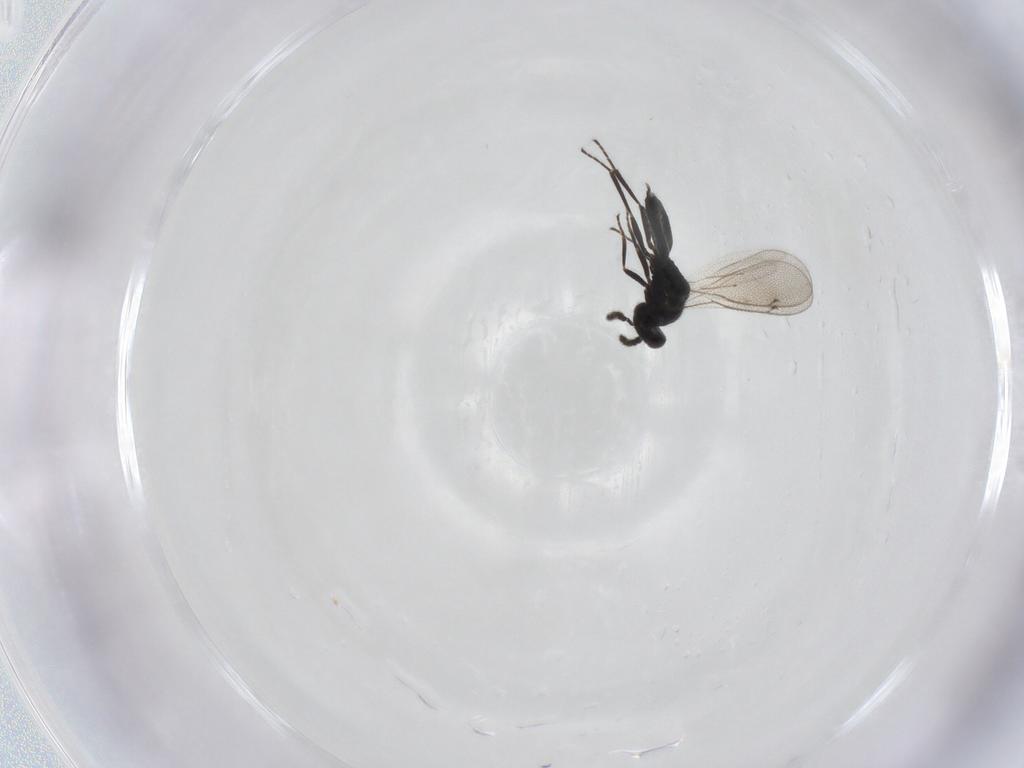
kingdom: Animalia
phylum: Arthropoda
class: Insecta
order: Hymenoptera
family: Eulophidae
